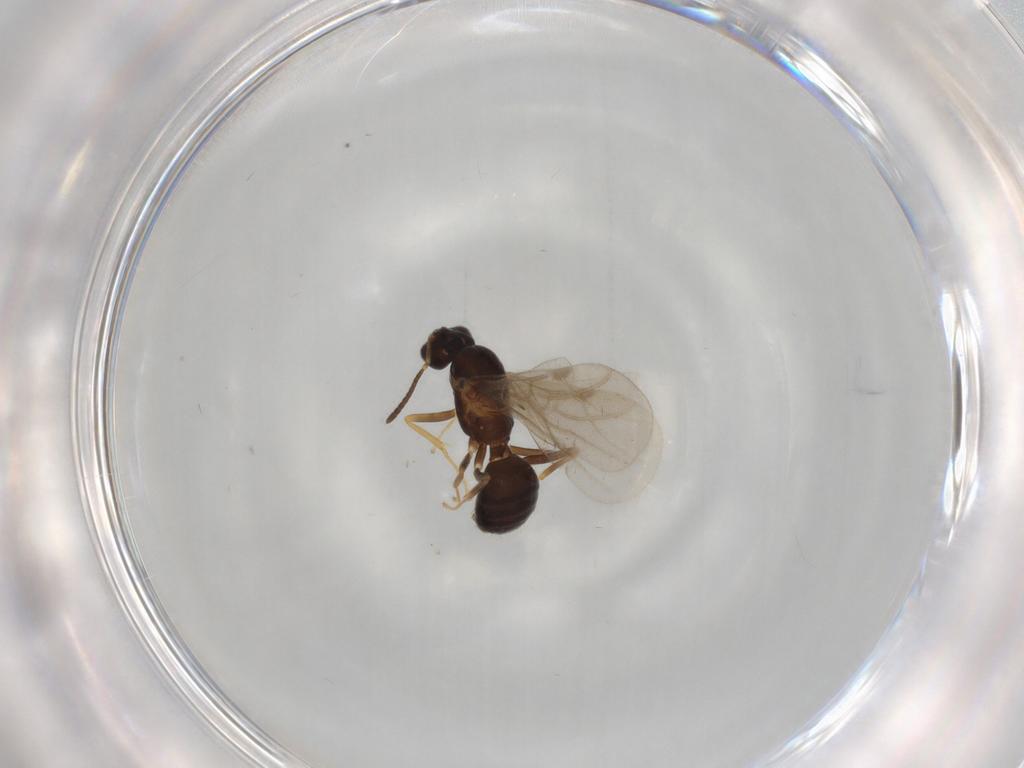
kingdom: Animalia
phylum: Arthropoda
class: Insecta
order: Hymenoptera
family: Formicidae
